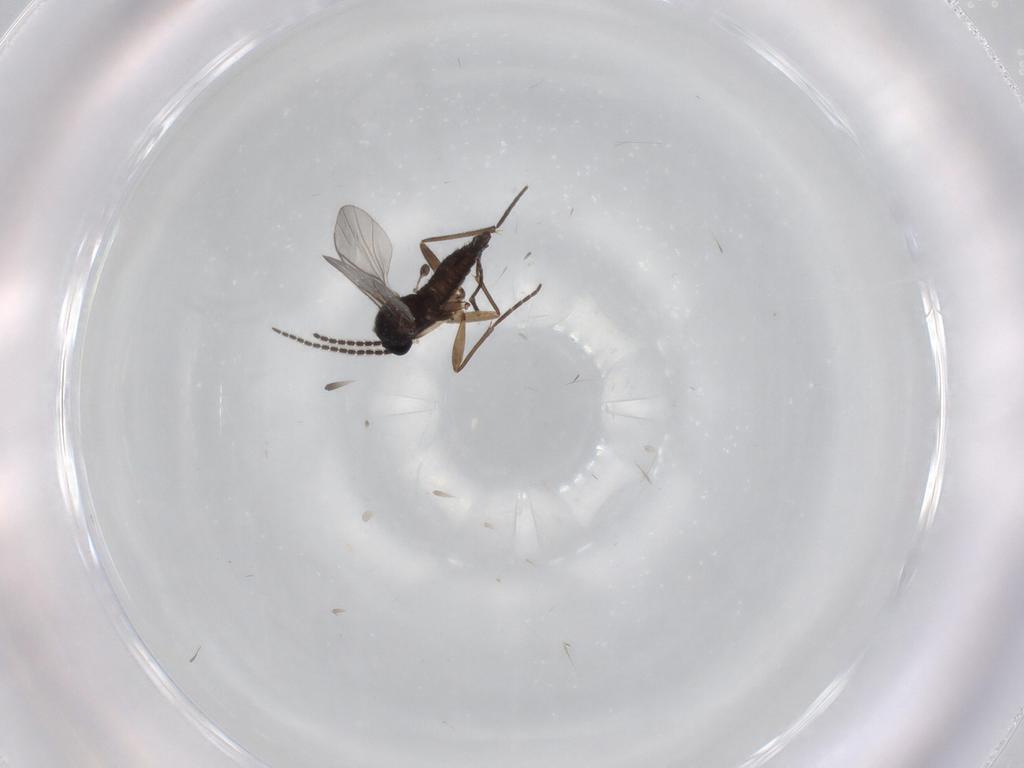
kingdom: Animalia
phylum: Arthropoda
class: Insecta
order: Diptera
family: Sciaridae
